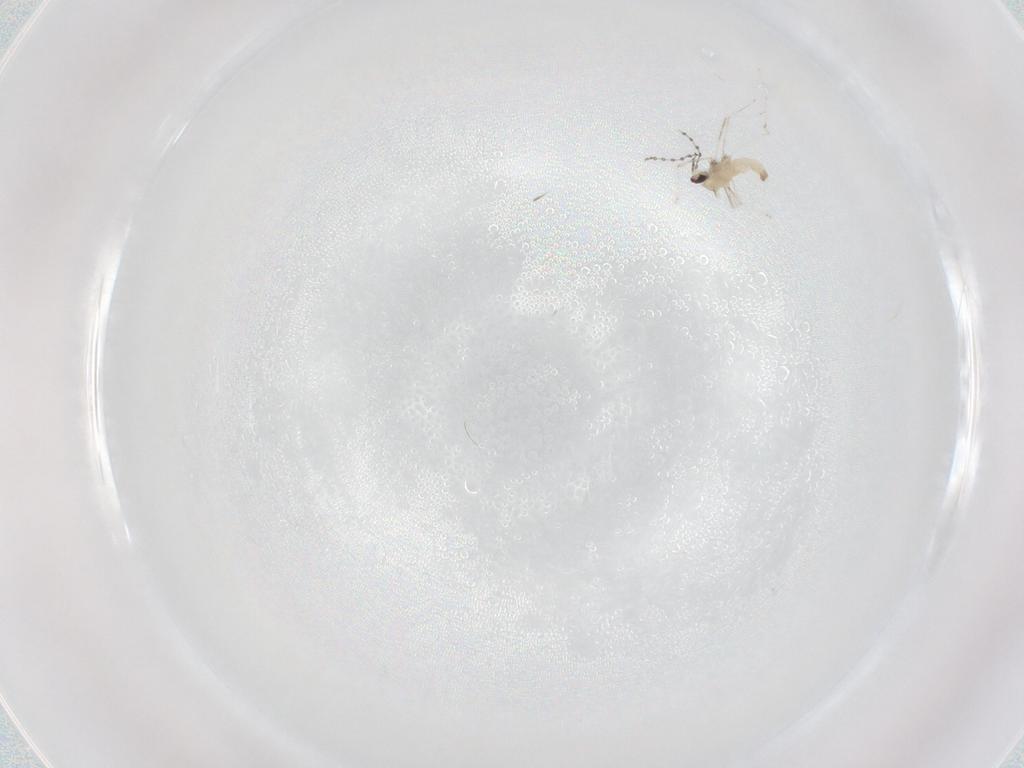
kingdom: Animalia
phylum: Arthropoda
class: Insecta
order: Diptera
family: Cecidomyiidae
